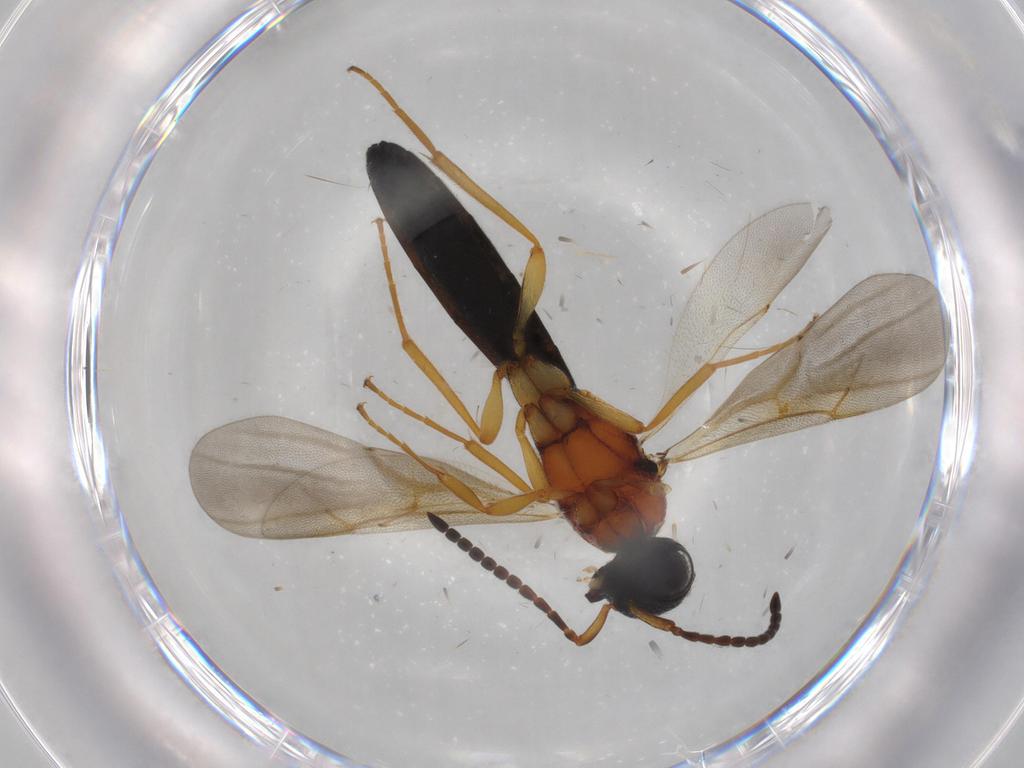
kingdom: Animalia
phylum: Arthropoda
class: Insecta
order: Hymenoptera
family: Scelionidae
